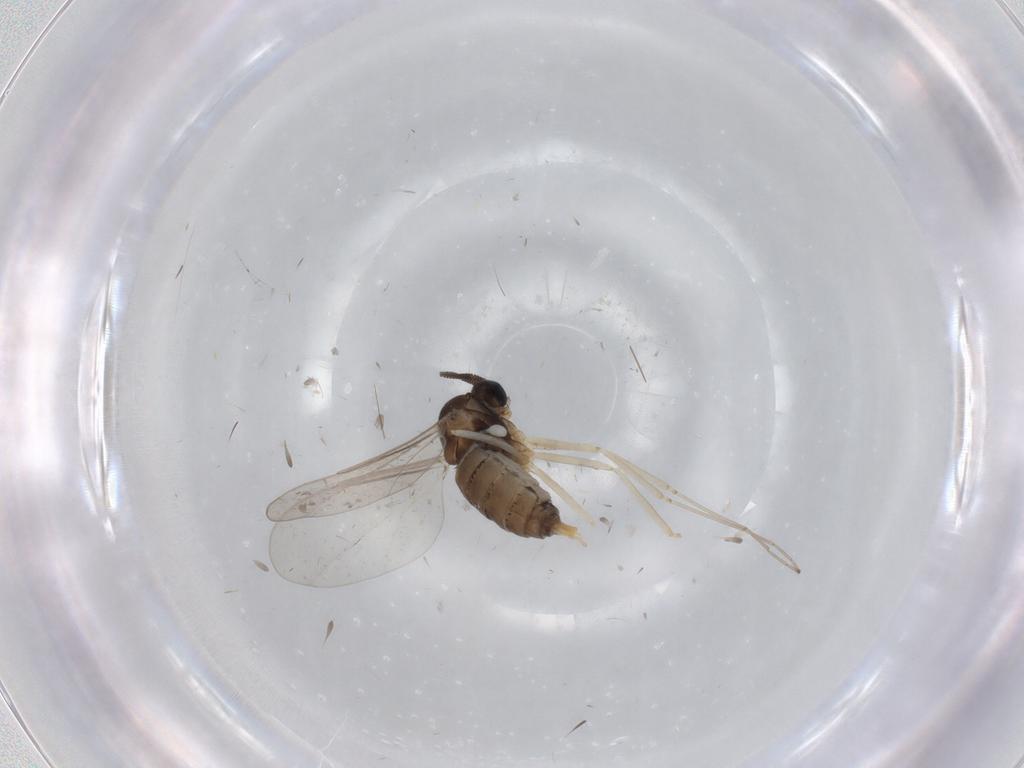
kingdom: Animalia
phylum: Arthropoda
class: Insecta
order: Diptera
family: Cecidomyiidae
